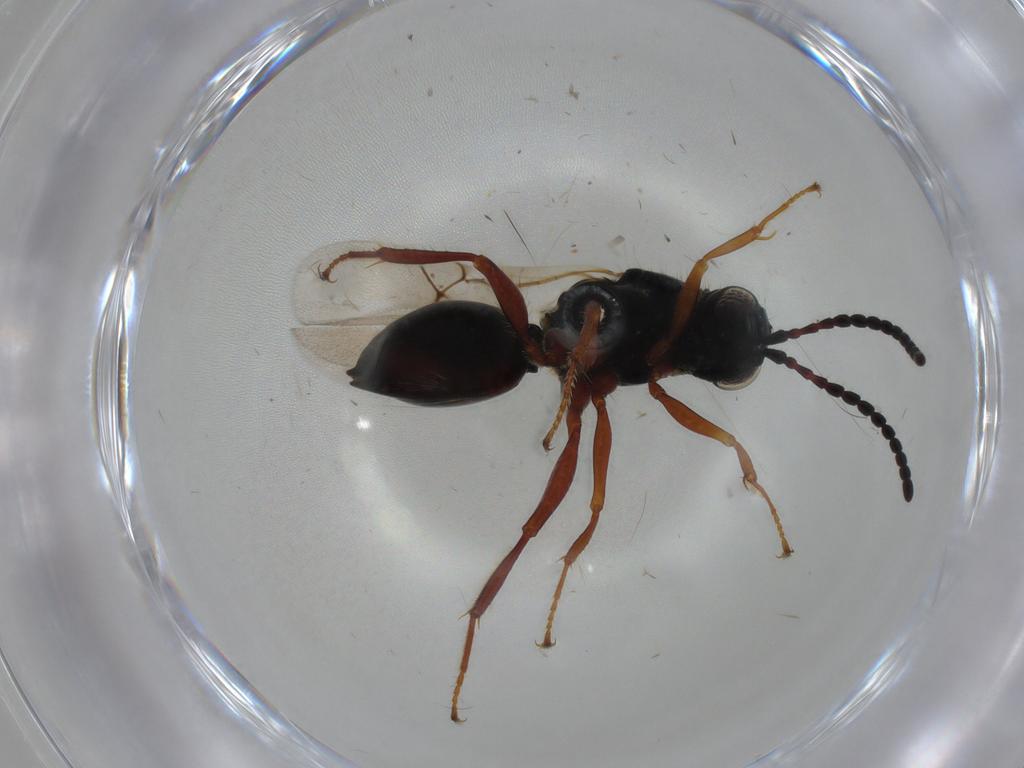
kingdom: Animalia
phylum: Arthropoda
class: Insecta
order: Hymenoptera
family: Figitidae
